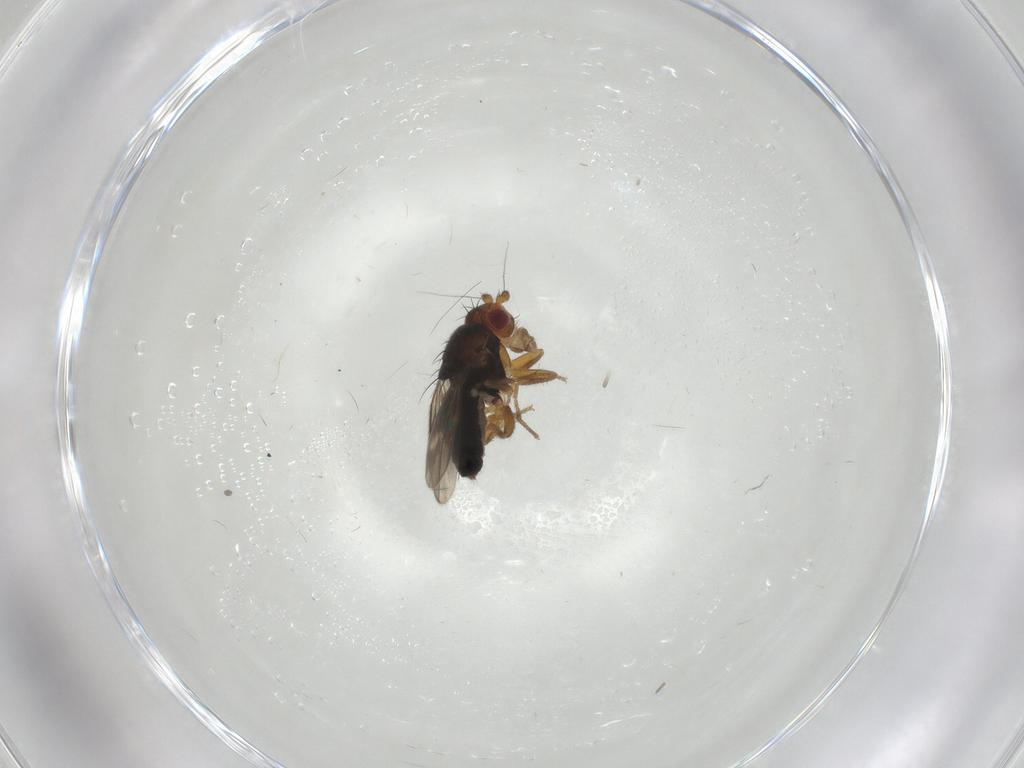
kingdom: Animalia
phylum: Arthropoda
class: Insecta
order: Diptera
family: Sphaeroceridae
